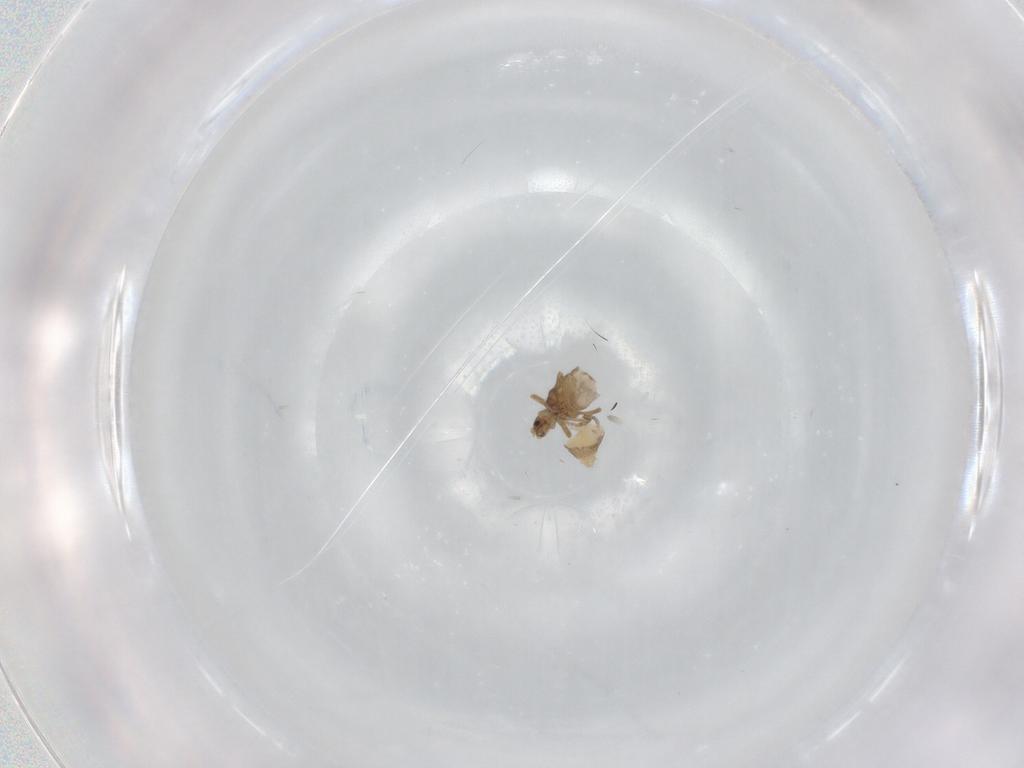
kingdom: Animalia
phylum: Arthropoda
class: Insecta
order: Diptera
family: Phoridae
